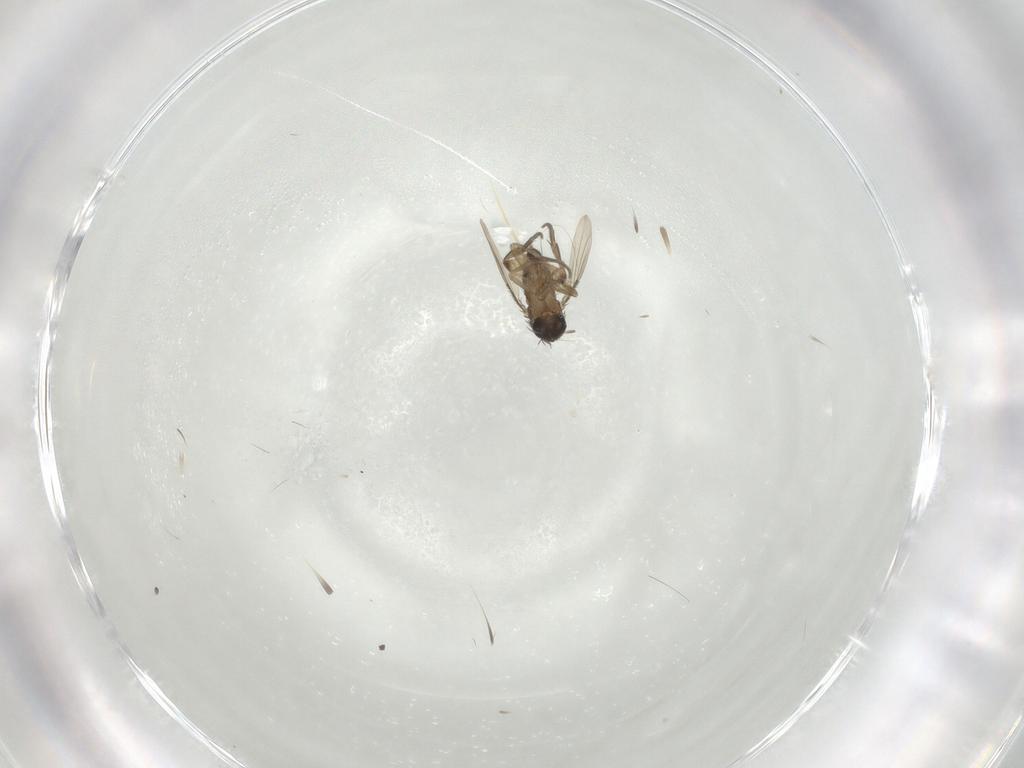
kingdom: Animalia
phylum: Arthropoda
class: Insecta
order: Diptera
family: Phoridae
